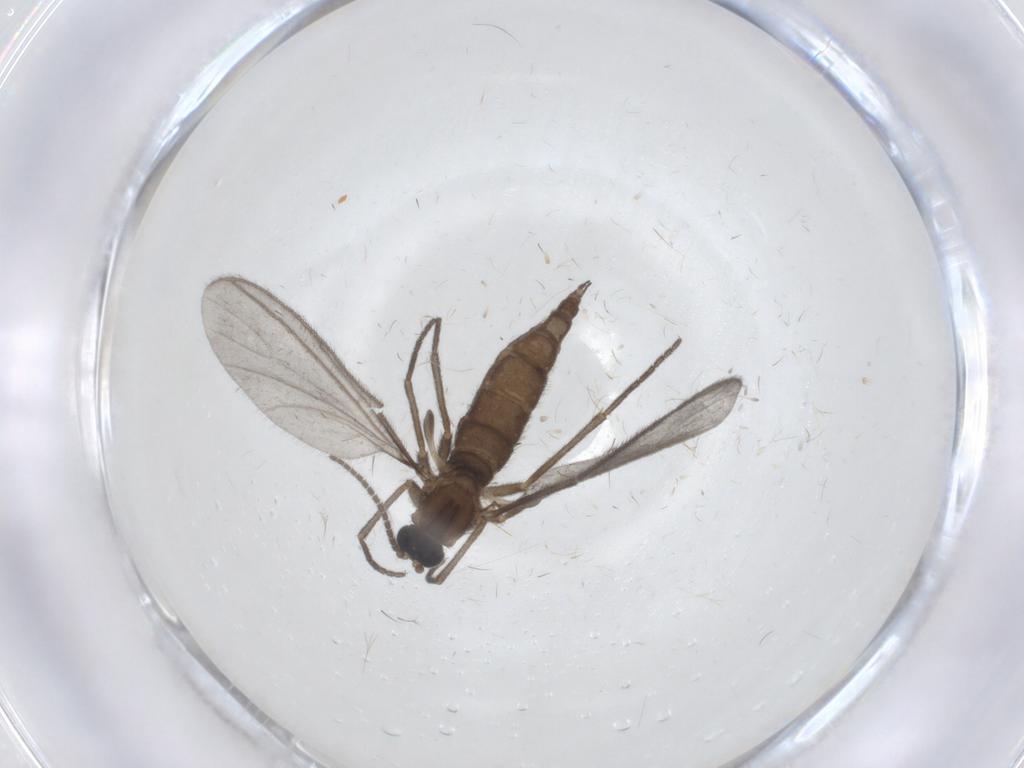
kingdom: Animalia
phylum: Arthropoda
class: Insecta
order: Diptera
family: Sciaridae
